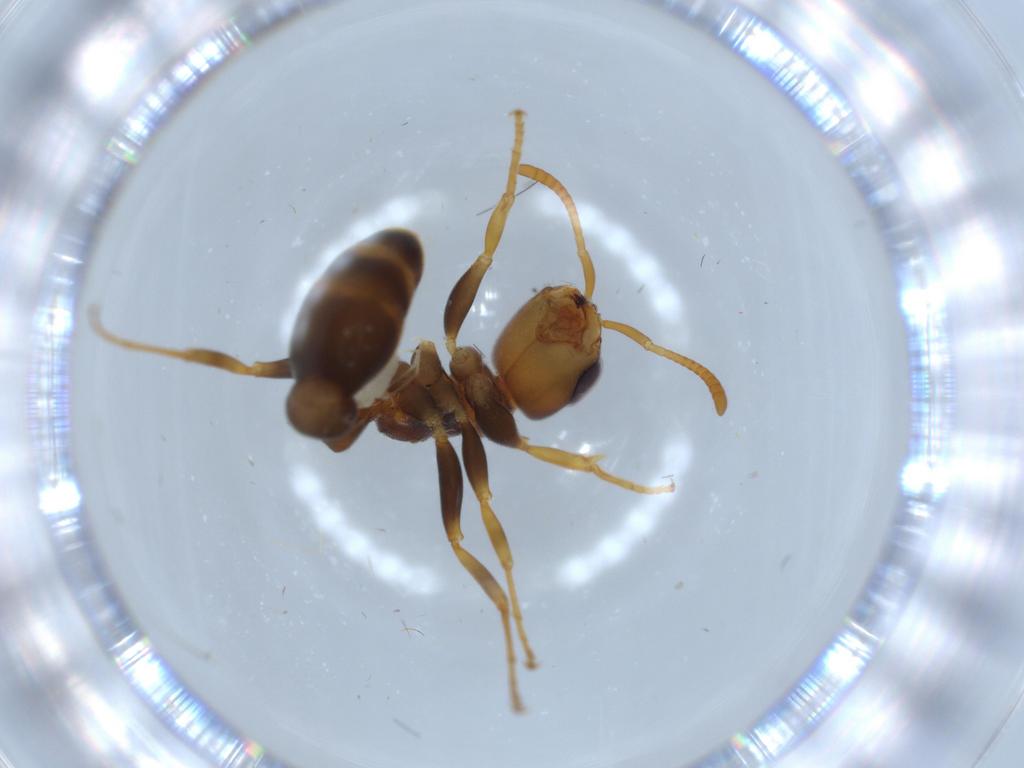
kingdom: Animalia
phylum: Arthropoda
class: Insecta
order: Hymenoptera
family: Formicidae
